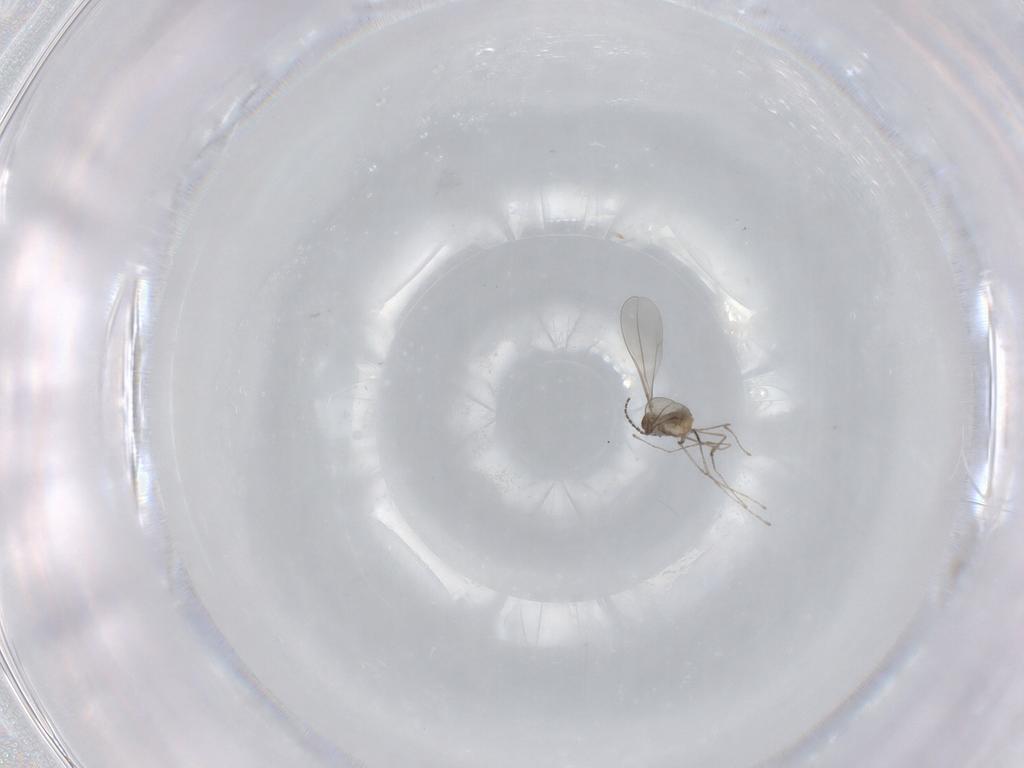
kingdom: Animalia
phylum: Arthropoda
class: Insecta
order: Diptera
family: Cecidomyiidae
